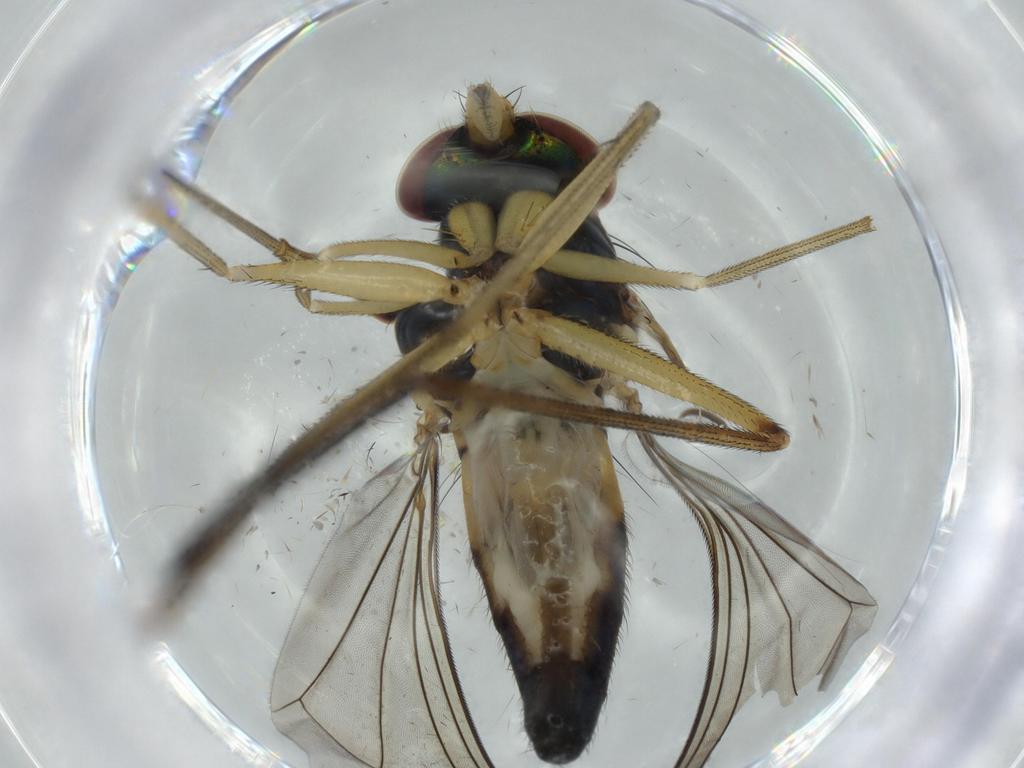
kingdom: Animalia
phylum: Arthropoda
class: Insecta
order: Diptera
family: Dolichopodidae
